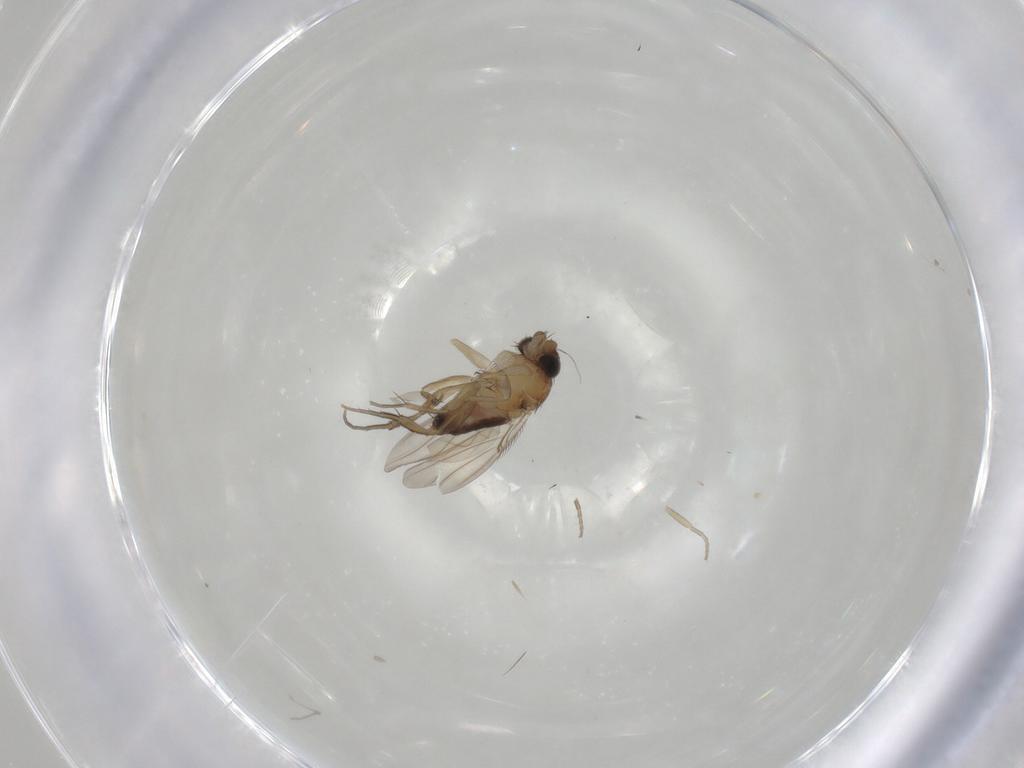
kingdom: Animalia
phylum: Arthropoda
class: Insecta
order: Diptera
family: Phoridae
